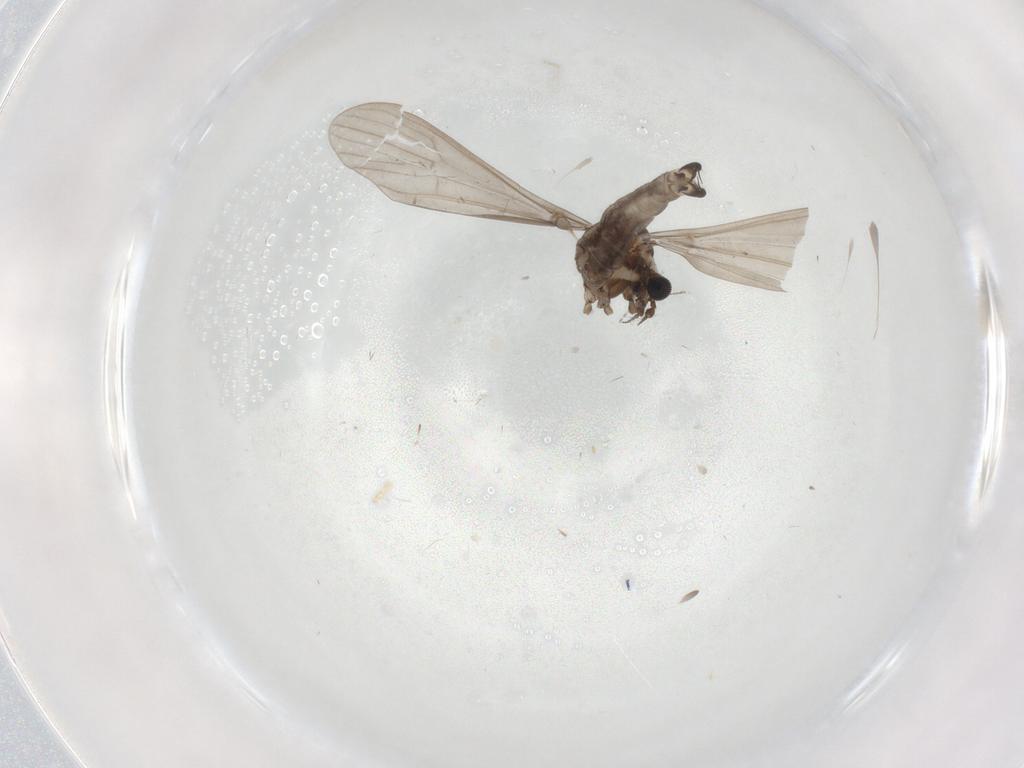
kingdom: Animalia
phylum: Arthropoda
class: Insecta
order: Diptera
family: Limoniidae
